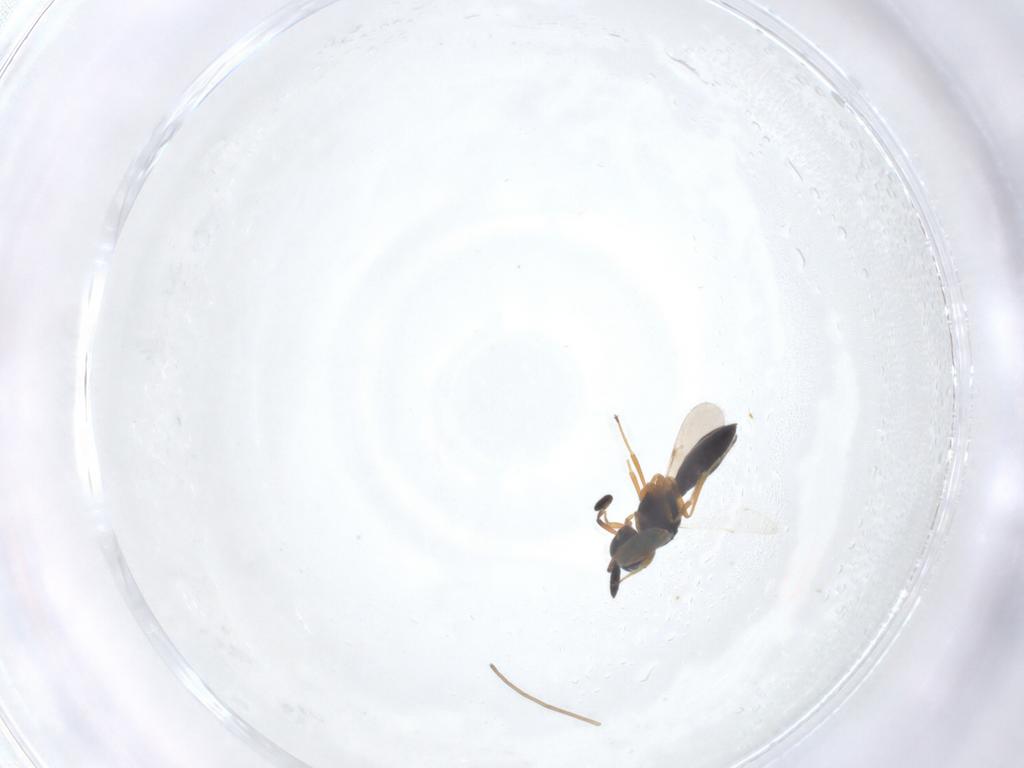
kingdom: Animalia
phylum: Arthropoda
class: Insecta
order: Hymenoptera
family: Scelionidae
